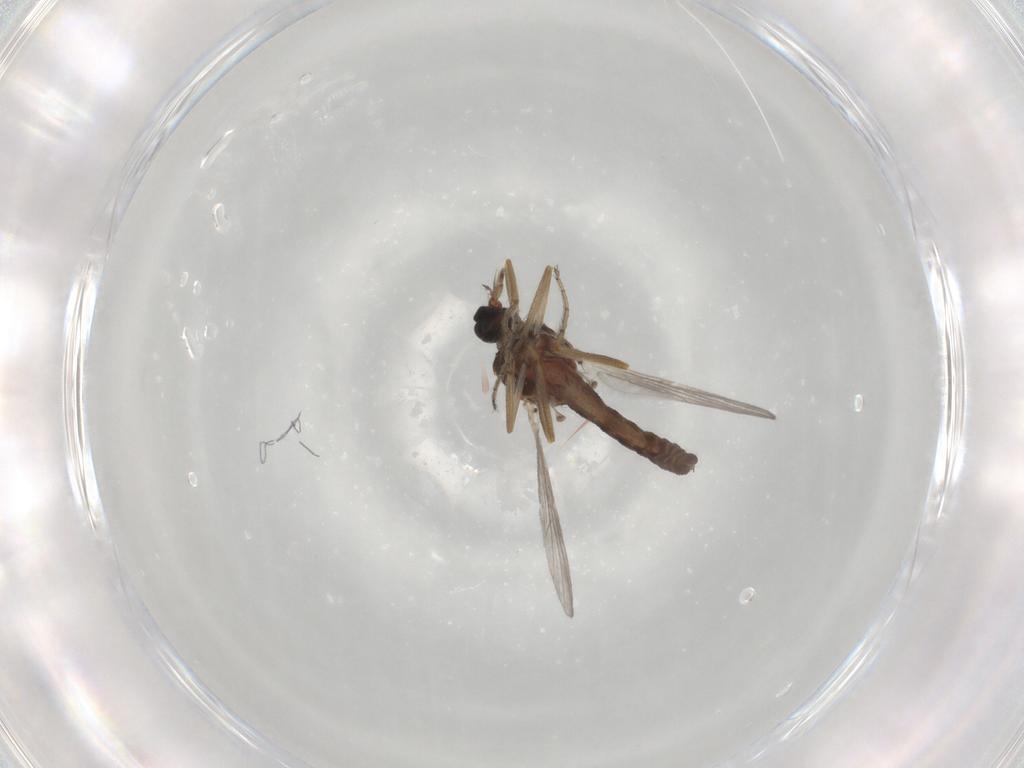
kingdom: Animalia
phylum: Arthropoda
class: Insecta
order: Diptera
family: Ceratopogonidae
